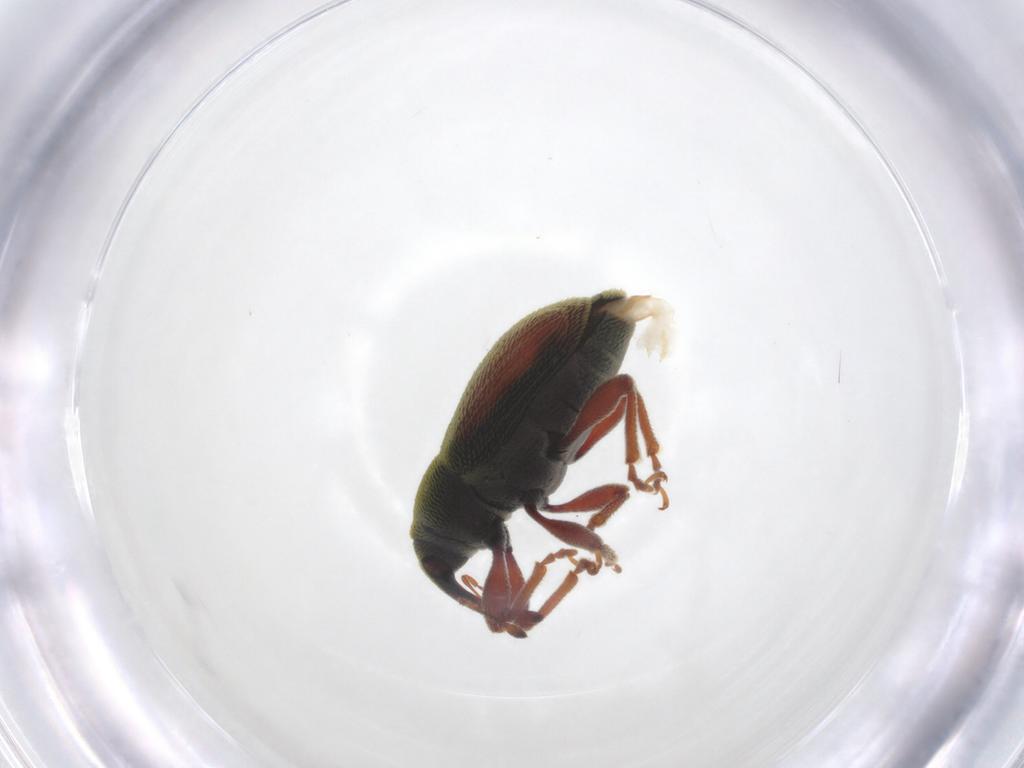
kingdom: Animalia
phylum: Arthropoda
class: Insecta
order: Coleoptera
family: Curculionidae
